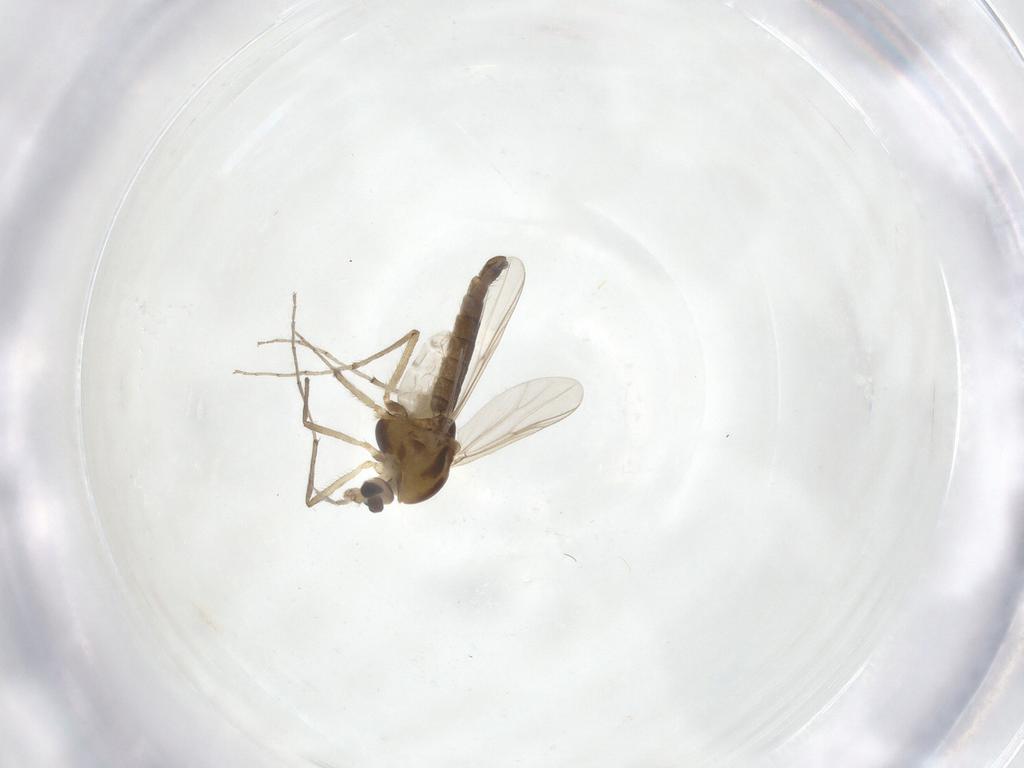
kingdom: Animalia
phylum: Arthropoda
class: Insecta
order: Diptera
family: Chironomidae
